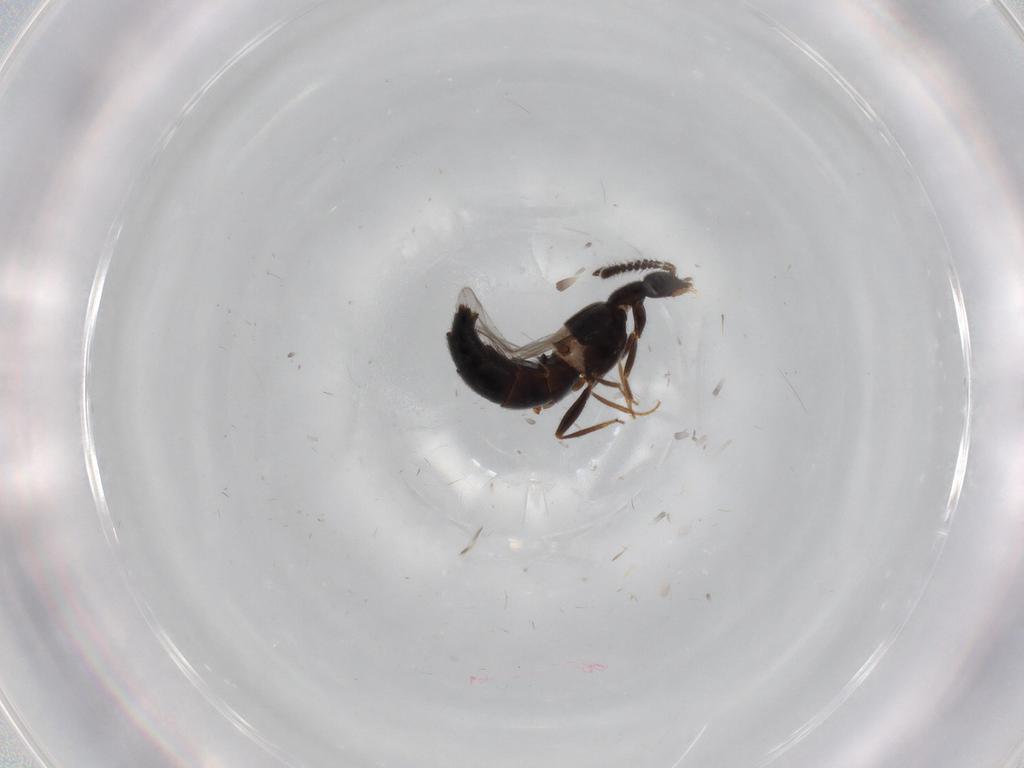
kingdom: Animalia
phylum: Arthropoda
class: Insecta
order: Coleoptera
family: Staphylinidae
